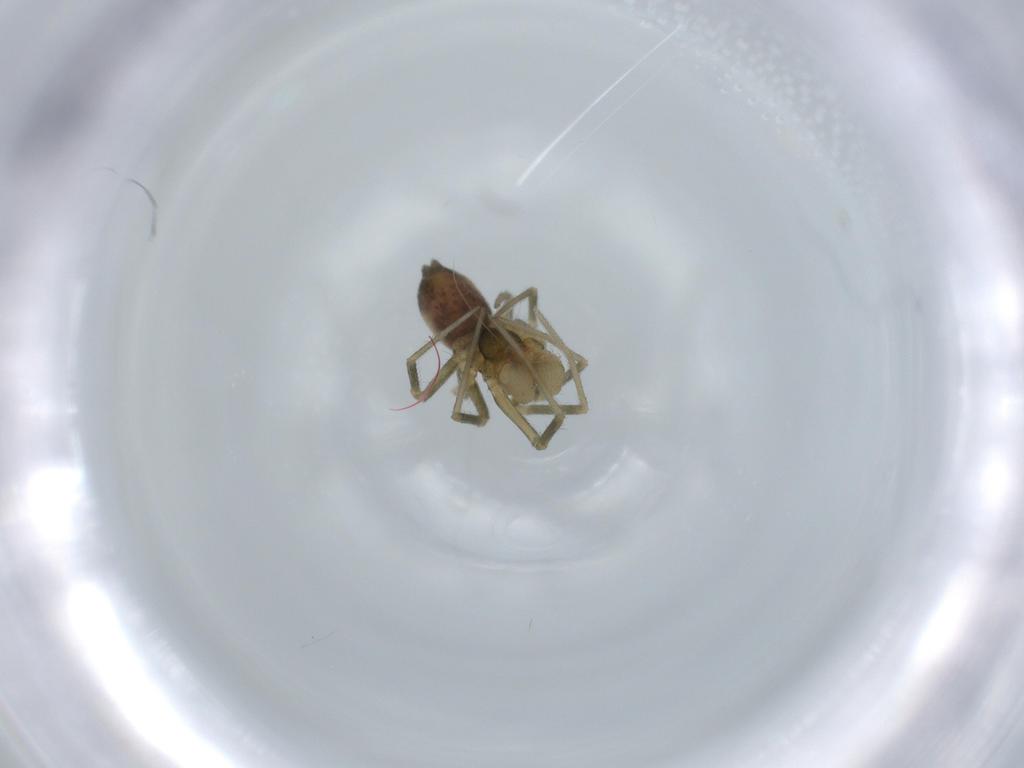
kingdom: Animalia
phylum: Arthropoda
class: Arachnida
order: Araneae
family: Linyphiidae
